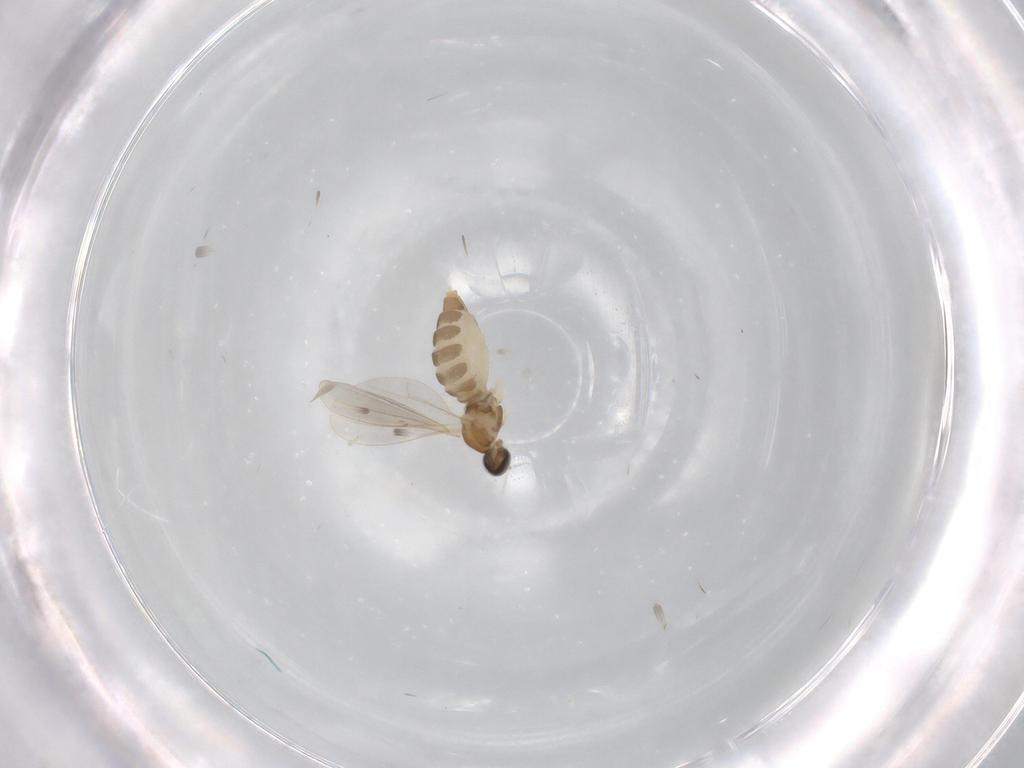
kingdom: Animalia
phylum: Arthropoda
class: Insecta
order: Diptera
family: Cecidomyiidae
